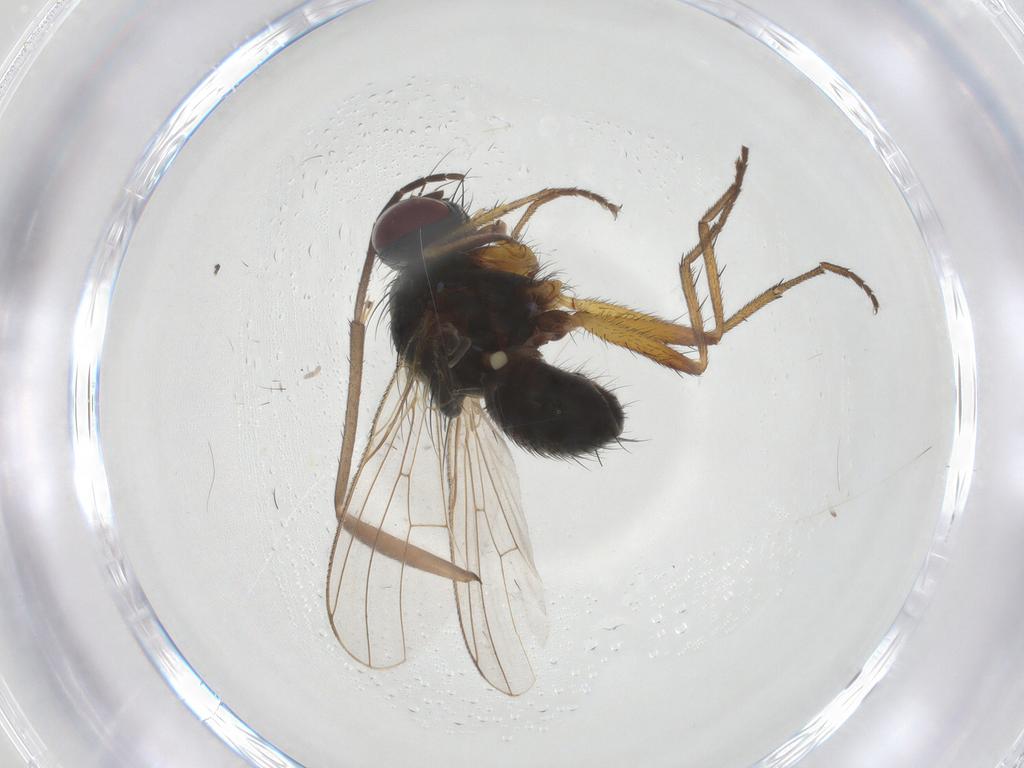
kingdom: Animalia
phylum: Arthropoda
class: Insecta
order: Diptera
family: Muscidae
